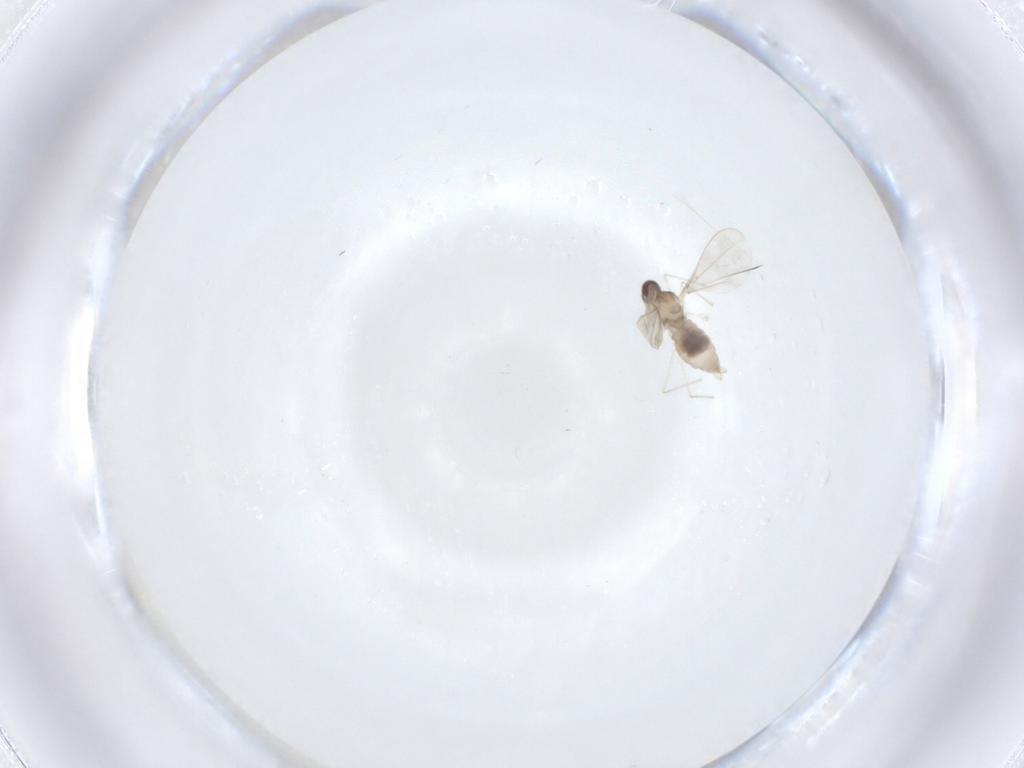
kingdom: Animalia
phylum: Arthropoda
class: Insecta
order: Diptera
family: Cecidomyiidae
